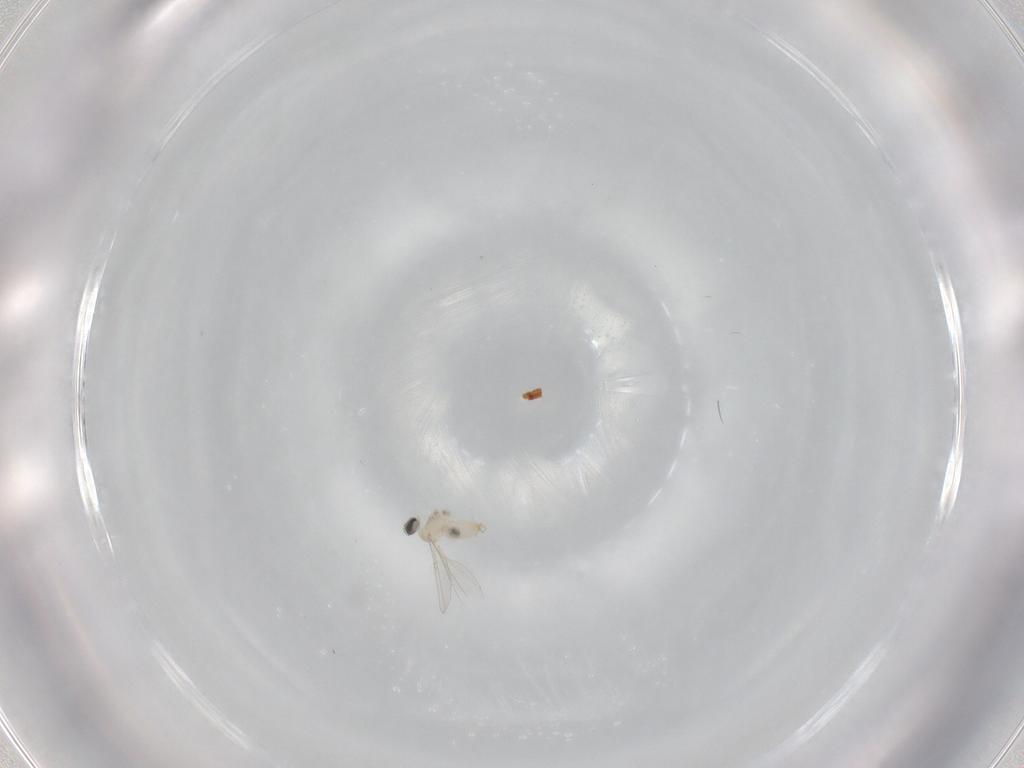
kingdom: Animalia
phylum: Arthropoda
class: Insecta
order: Diptera
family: Cecidomyiidae
